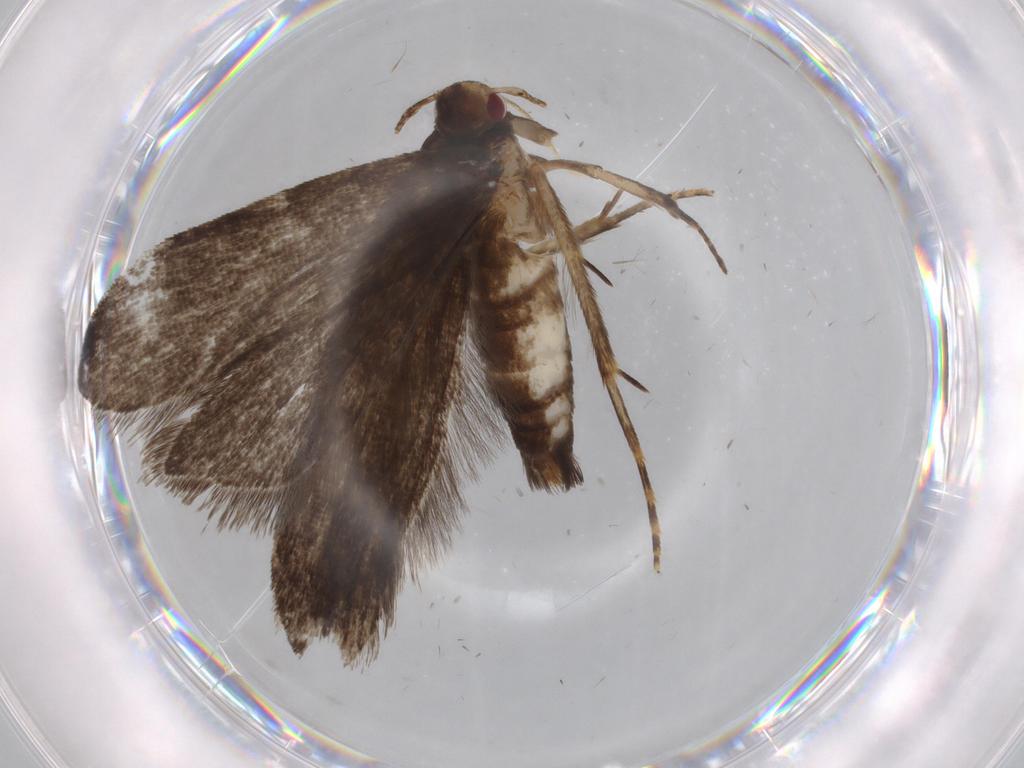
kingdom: Animalia
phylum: Arthropoda
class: Insecta
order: Lepidoptera
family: Gelechiidae
